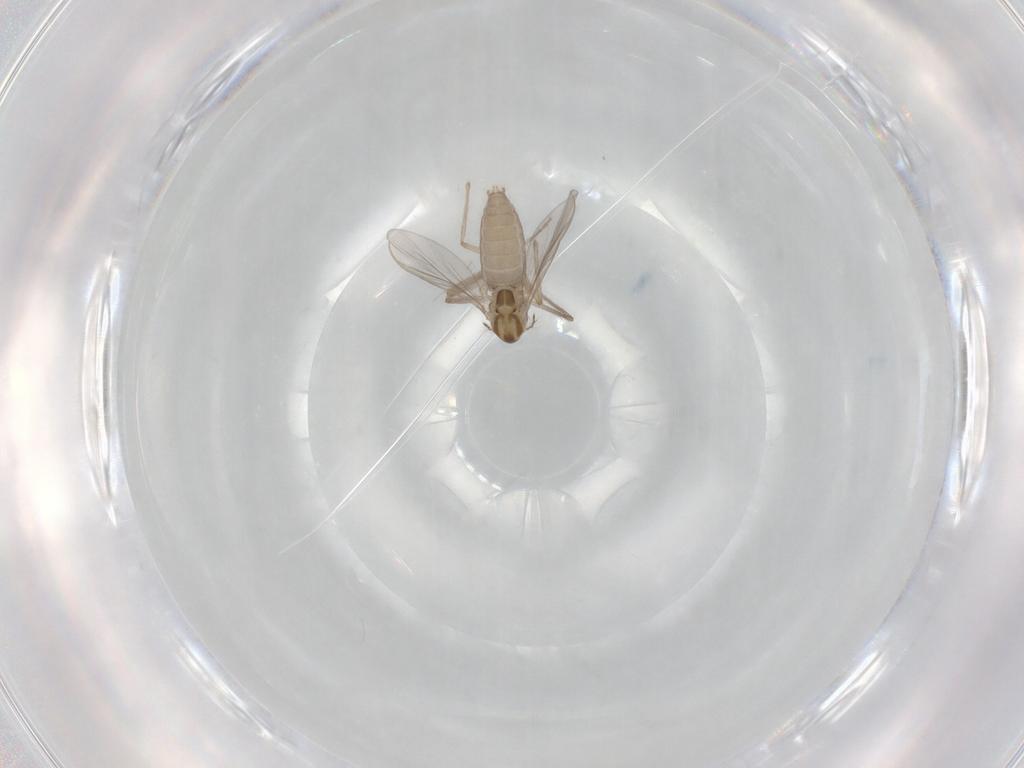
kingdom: Animalia
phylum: Arthropoda
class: Insecta
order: Diptera
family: Chironomidae
